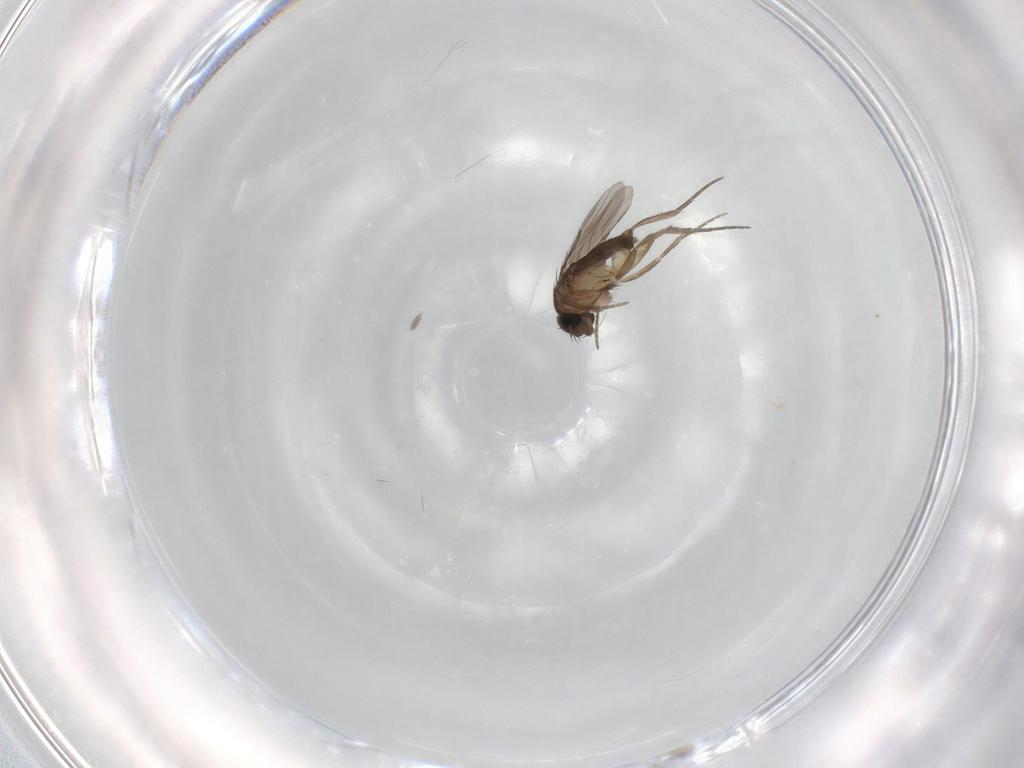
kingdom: Animalia
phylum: Arthropoda
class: Insecta
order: Diptera
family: Phoridae
